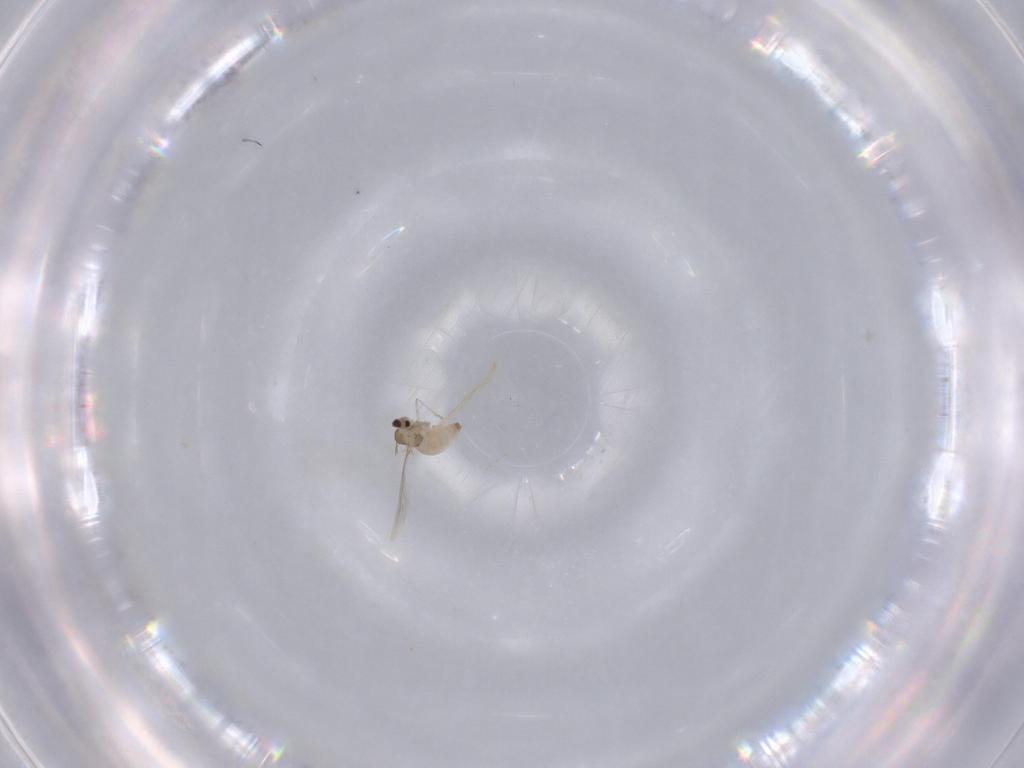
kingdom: Animalia
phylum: Arthropoda
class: Insecta
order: Diptera
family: Cecidomyiidae
